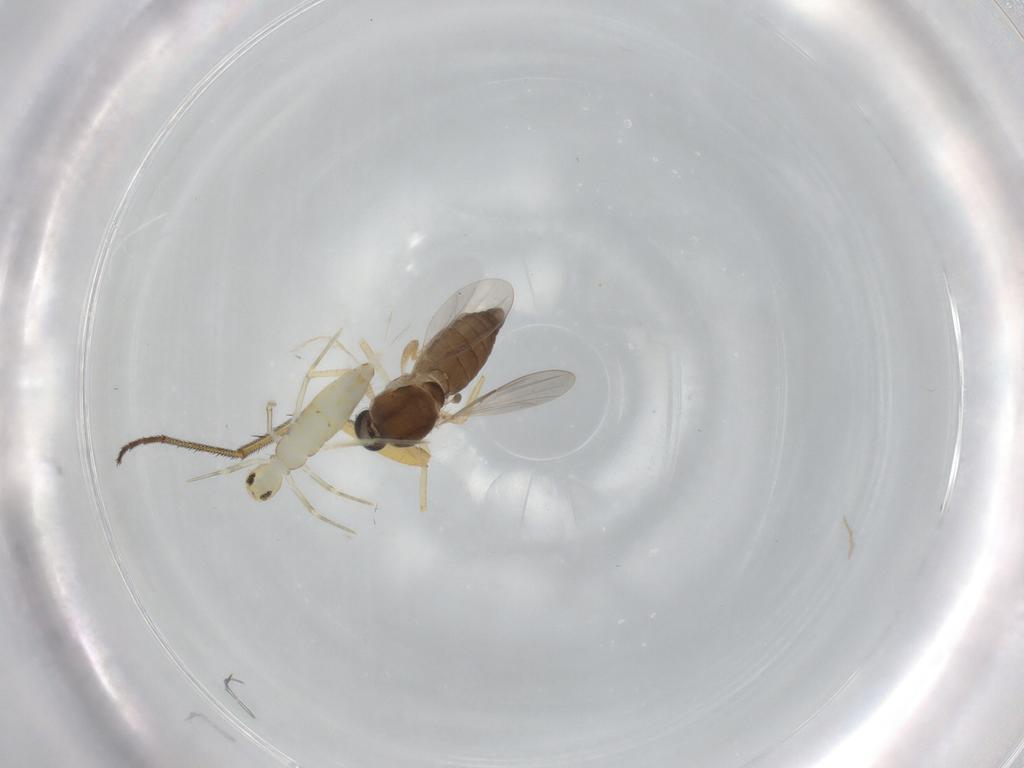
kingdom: Animalia
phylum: Arthropoda
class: Insecta
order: Diptera
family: Ceratopogonidae
